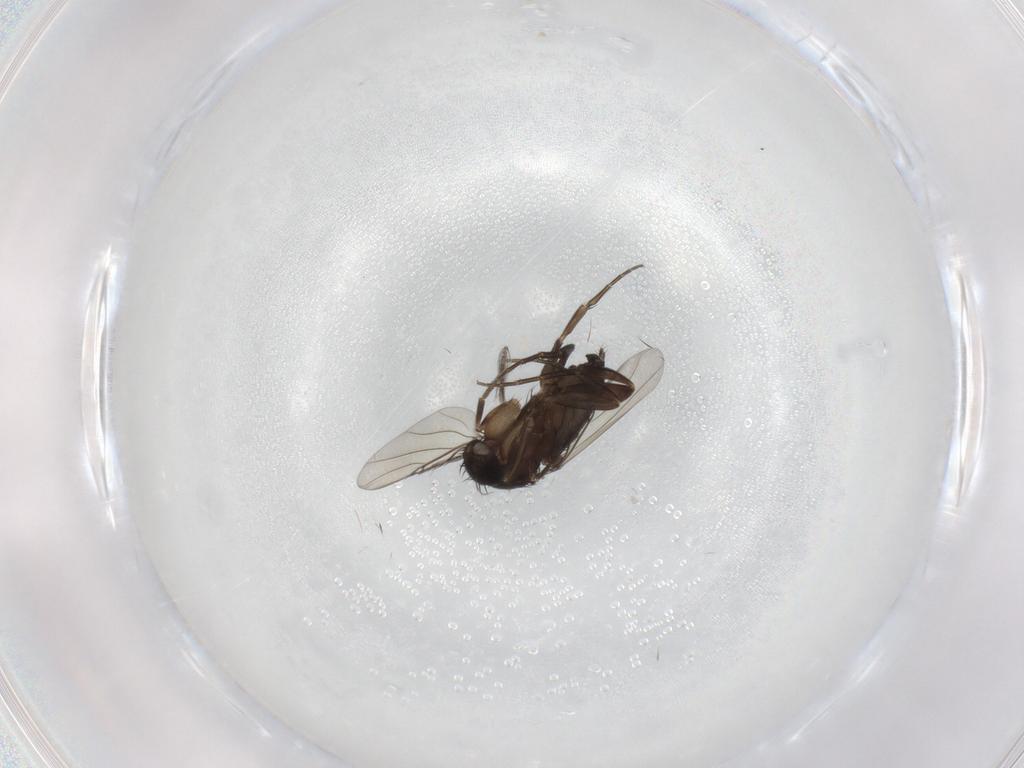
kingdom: Animalia
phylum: Arthropoda
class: Insecta
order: Diptera
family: Phoridae
